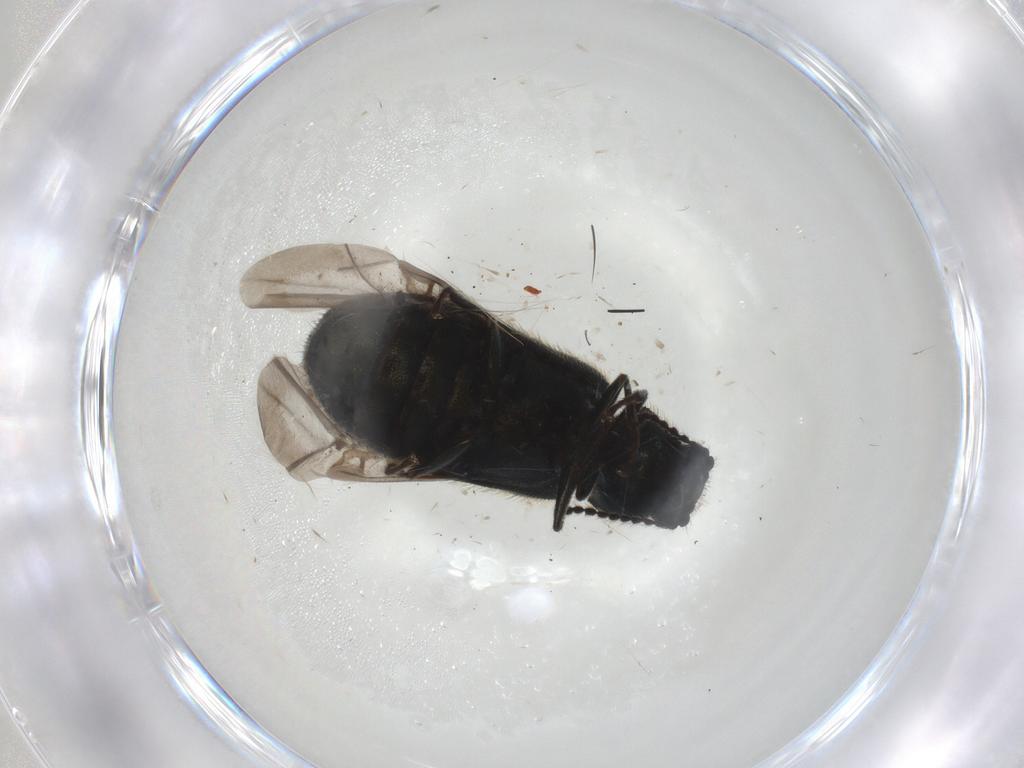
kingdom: Animalia
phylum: Arthropoda
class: Insecta
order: Coleoptera
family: Melyridae
